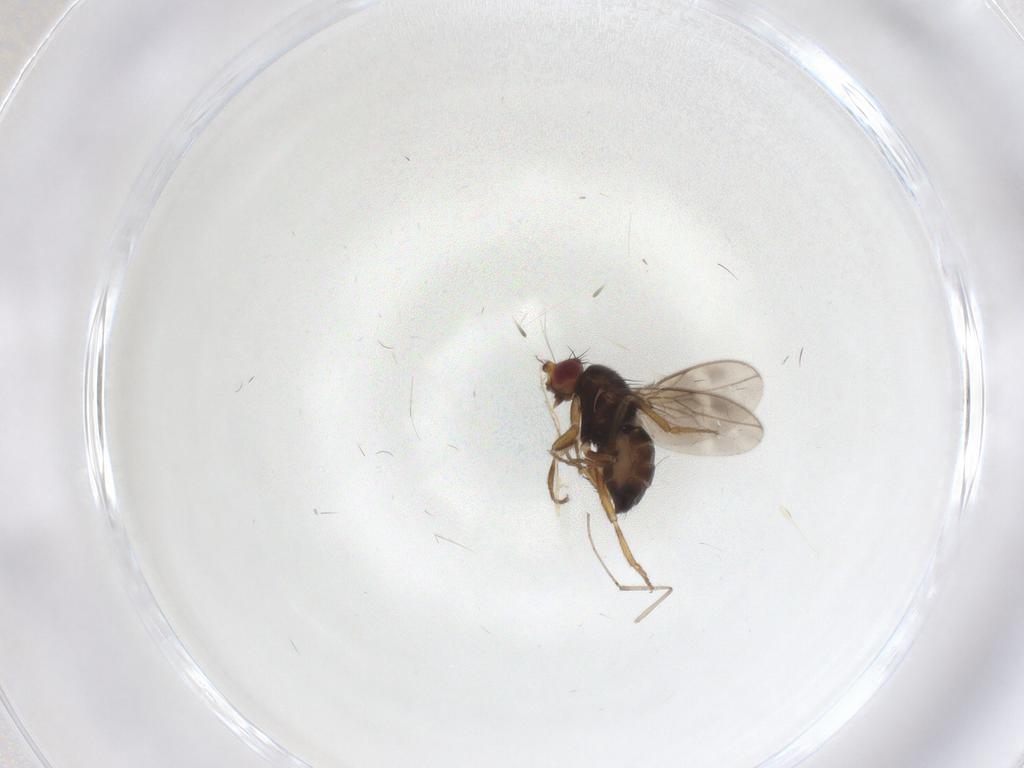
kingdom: Animalia
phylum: Arthropoda
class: Insecta
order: Diptera
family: Sphaeroceridae
